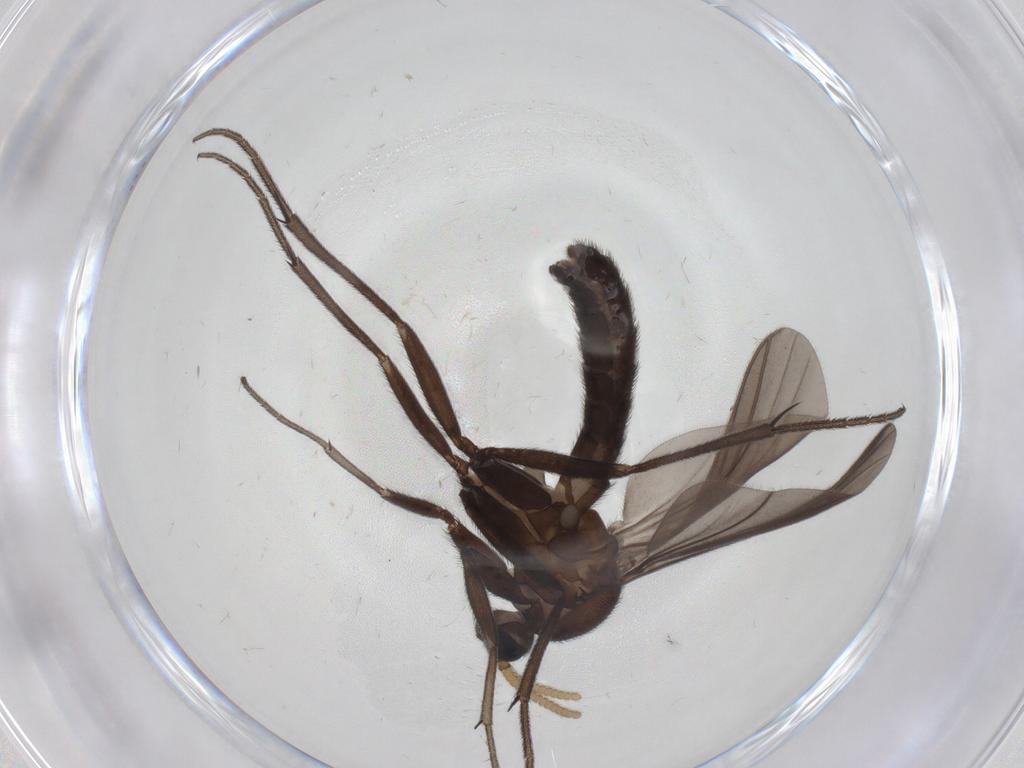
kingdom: Animalia
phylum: Arthropoda
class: Insecta
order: Diptera
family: Mycetophilidae
